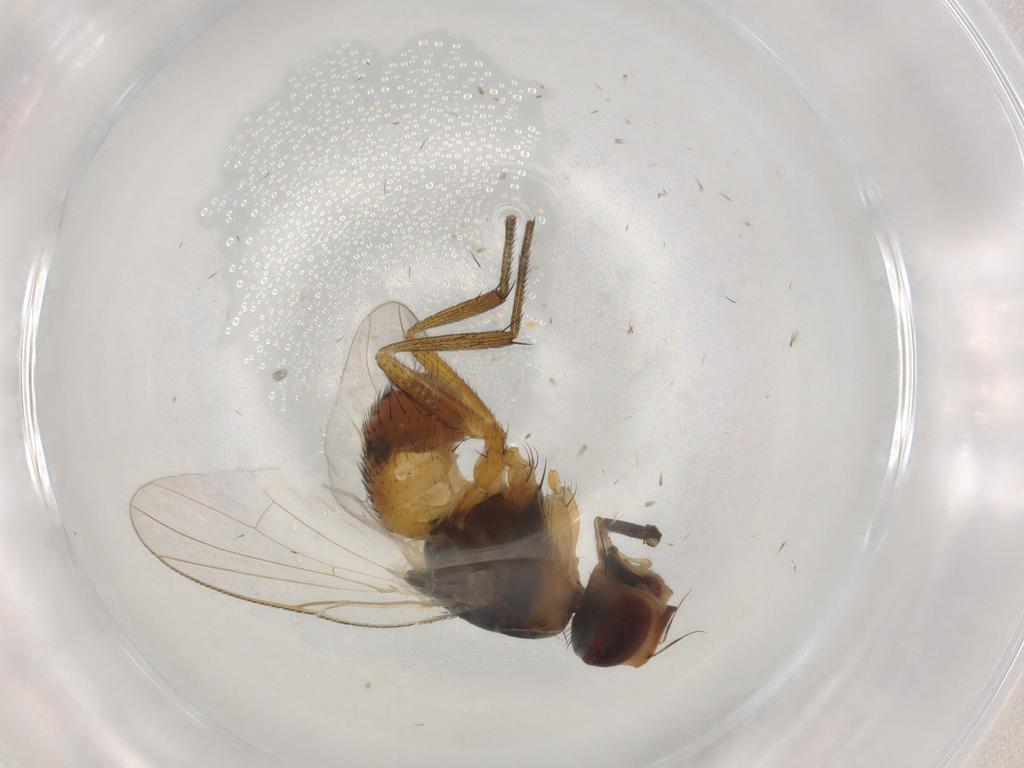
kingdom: Animalia
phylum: Arthropoda
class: Insecta
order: Diptera
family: Muscidae
